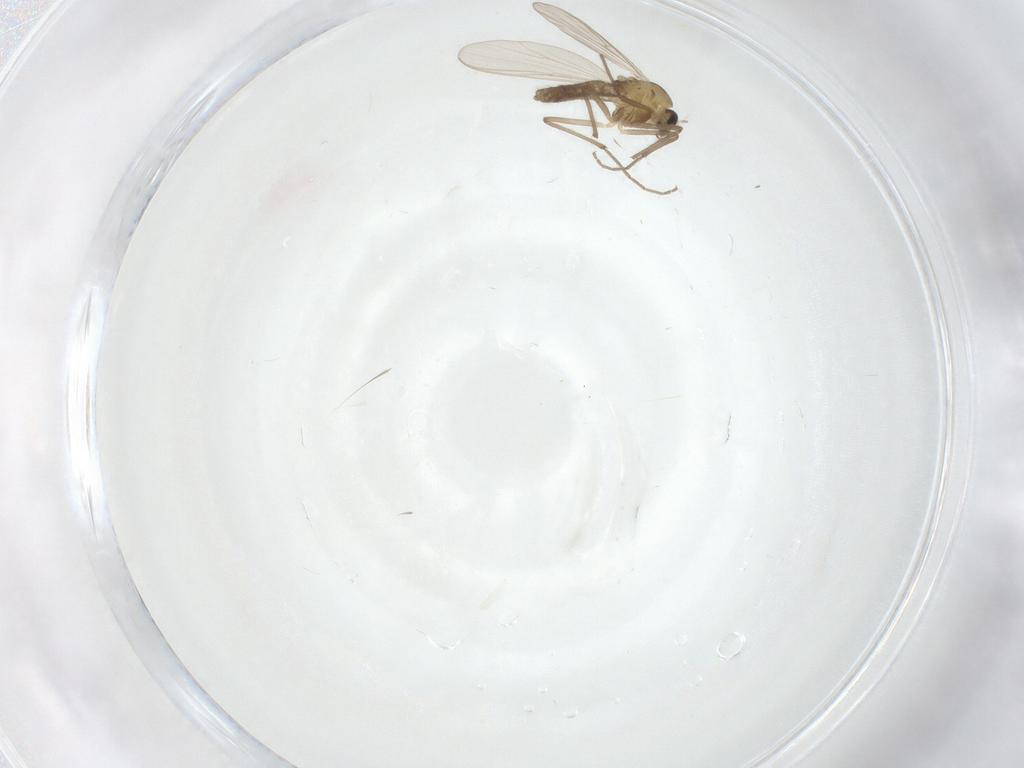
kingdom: Animalia
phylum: Arthropoda
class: Insecta
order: Diptera
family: Chironomidae
